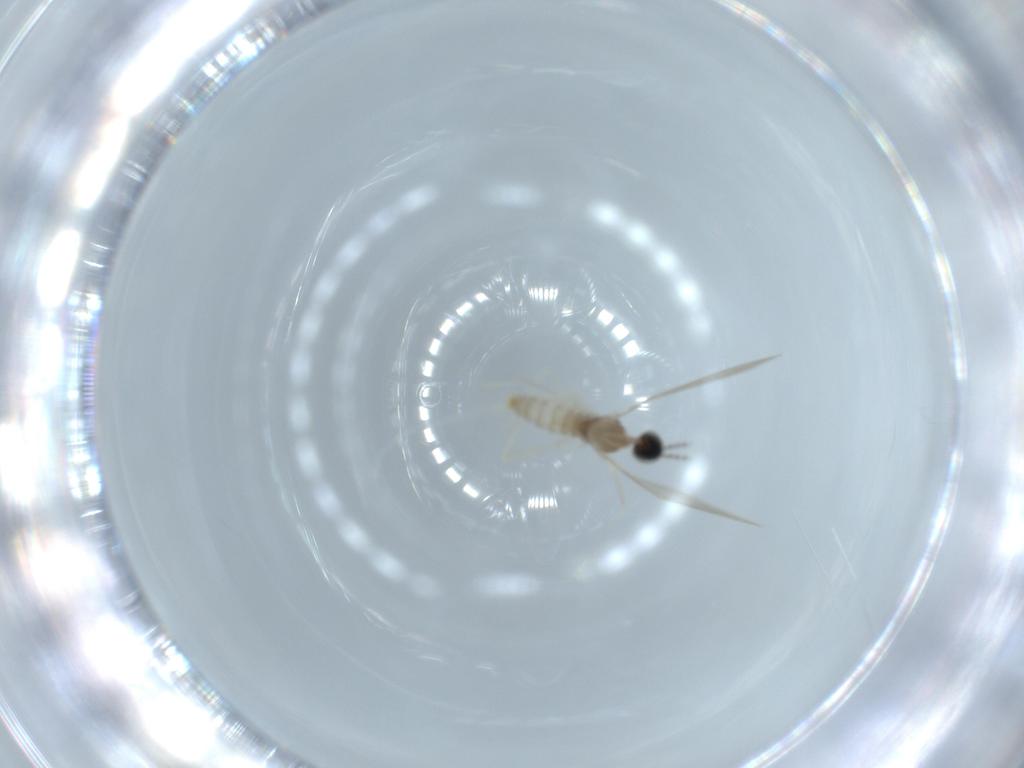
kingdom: Animalia
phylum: Arthropoda
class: Insecta
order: Diptera
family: Cecidomyiidae
